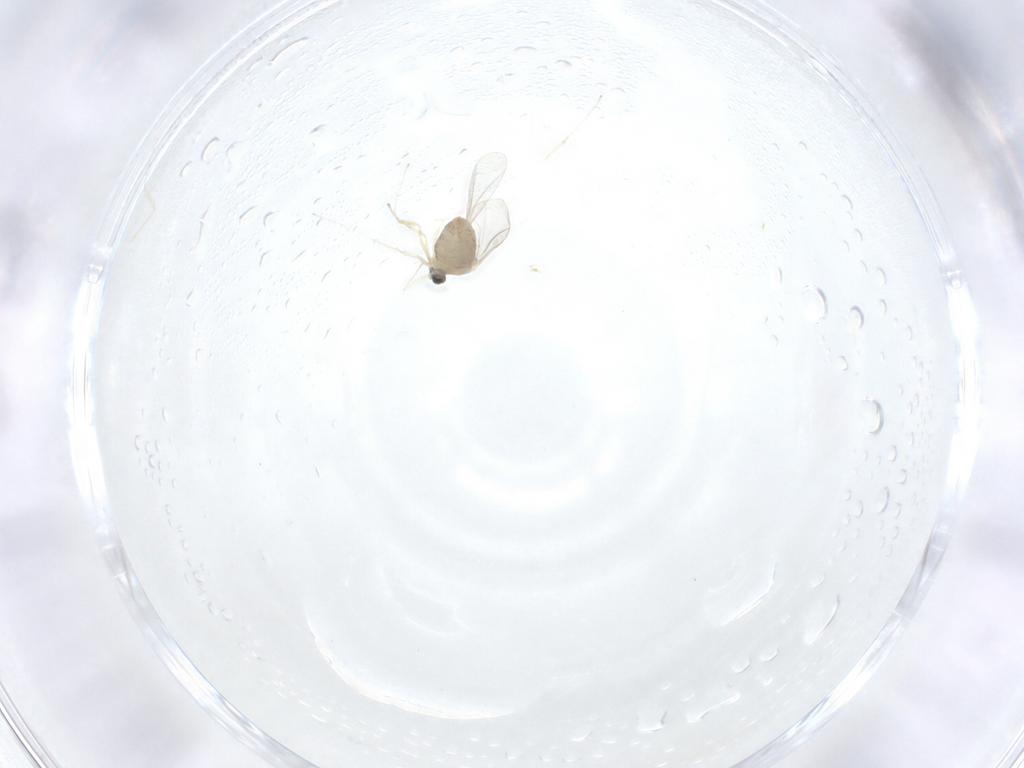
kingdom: Animalia
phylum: Arthropoda
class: Insecta
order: Diptera
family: Cecidomyiidae
